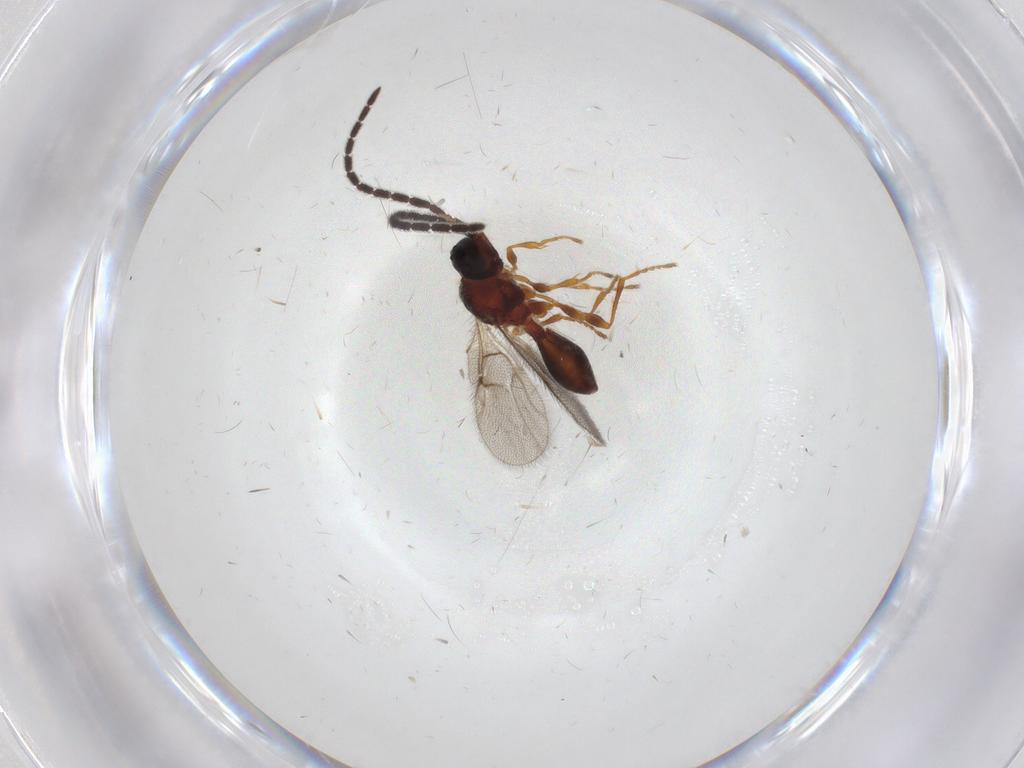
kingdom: Animalia
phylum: Arthropoda
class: Insecta
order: Hymenoptera
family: Diapriidae
